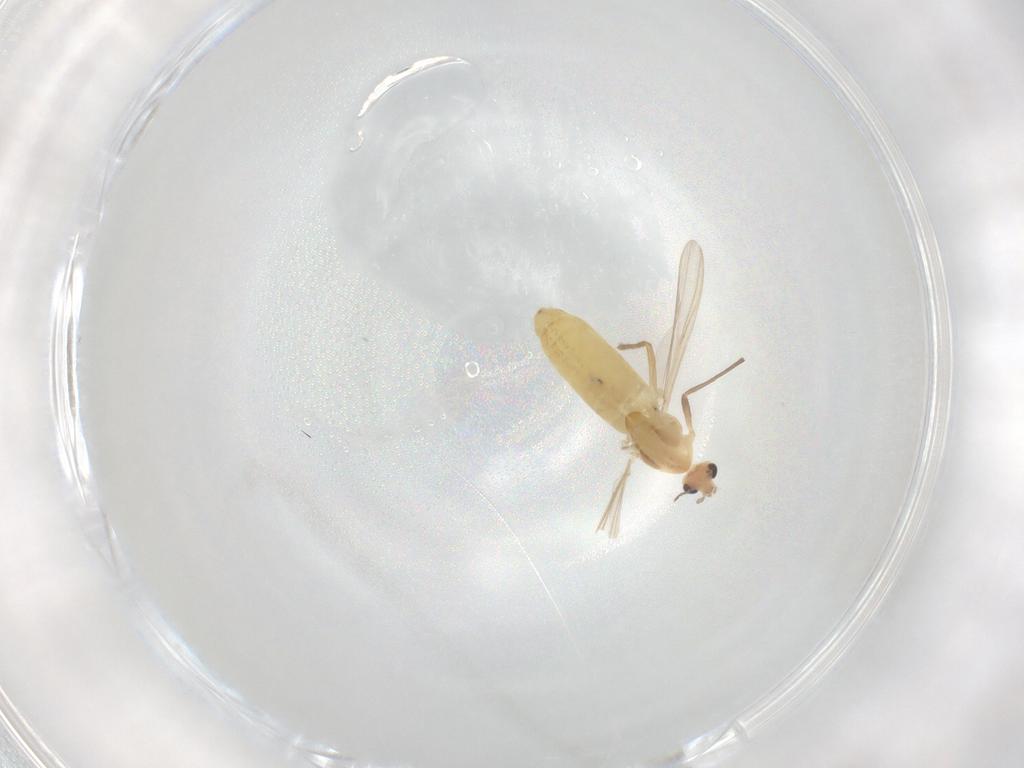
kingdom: Animalia
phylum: Arthropoda
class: Insecta
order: Diptera
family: Chironomidae
